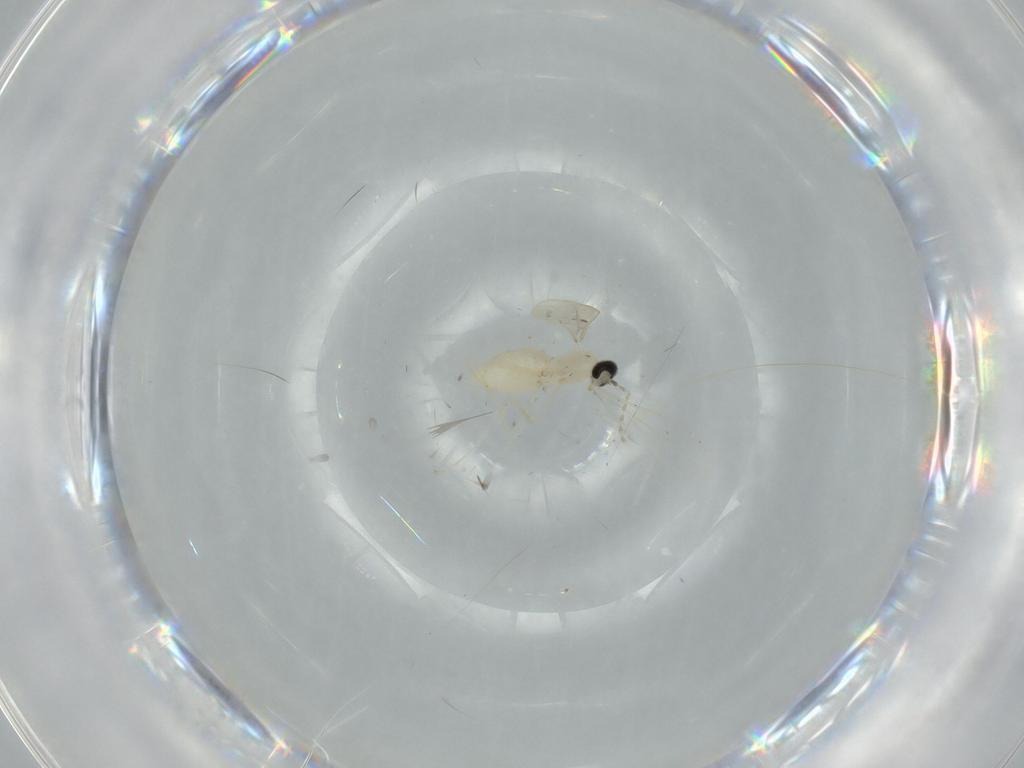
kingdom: Animalia
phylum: Arthropoda
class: Insecta
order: Diptera
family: Cecidomyiidae
